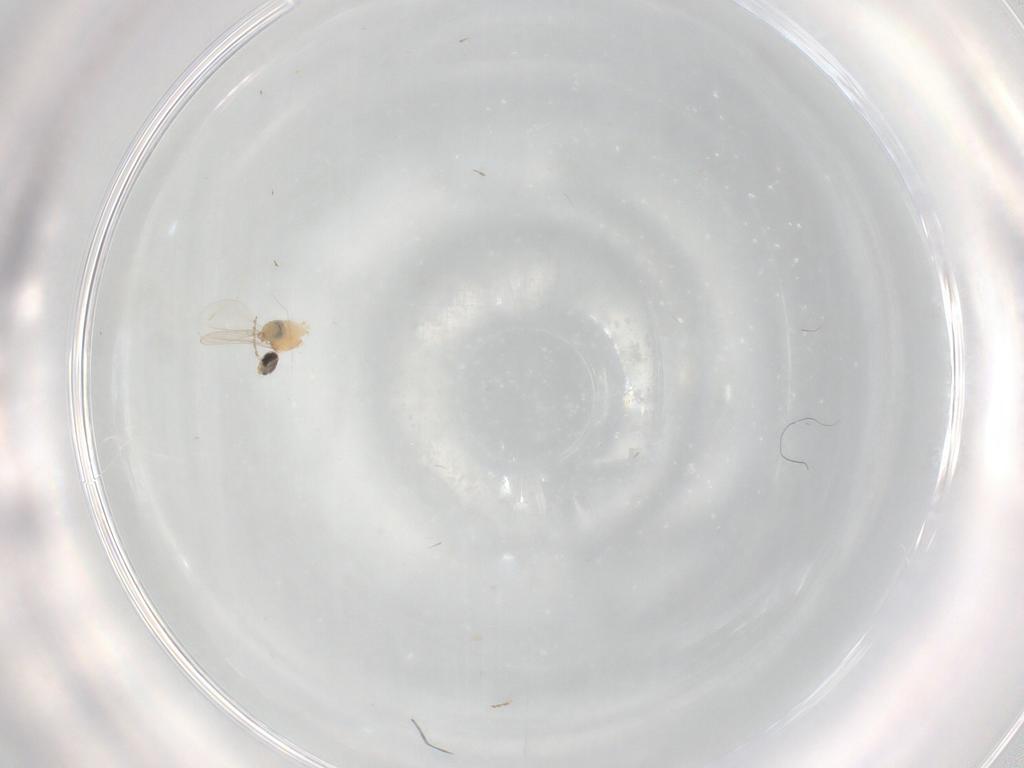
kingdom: Animalia
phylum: Arthropoda
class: Insecta
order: Diptera
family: Cecidomyiidae
